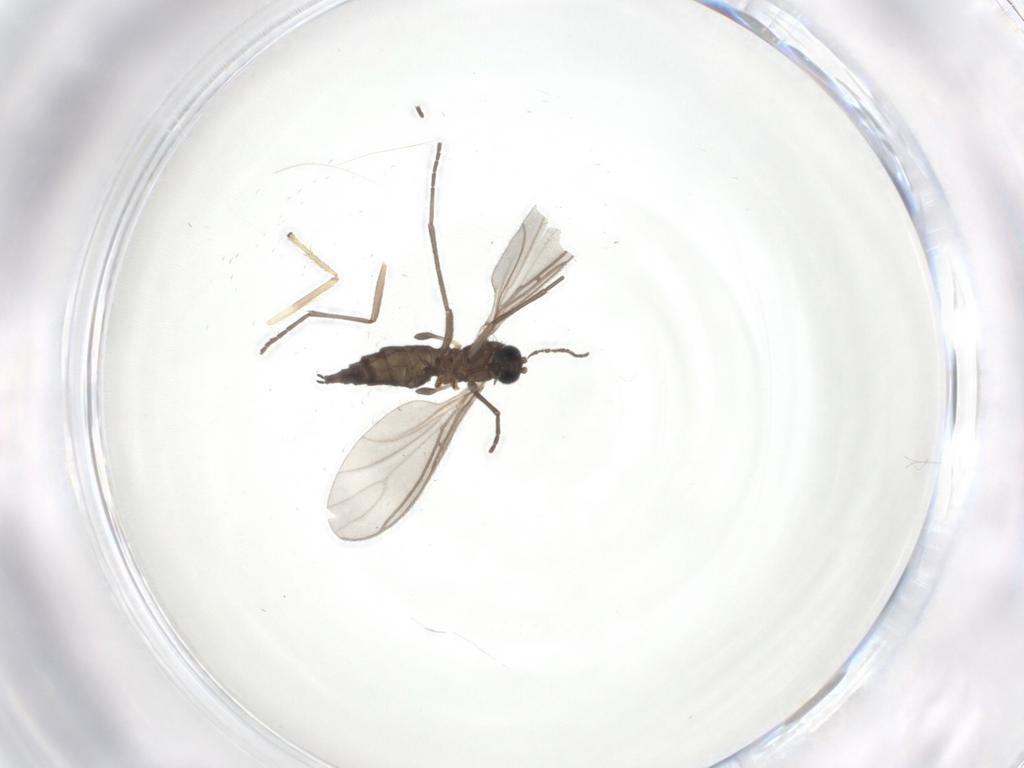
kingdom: Animalia
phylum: Arthropoda
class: Insecta
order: Diptera
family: Chironomidae
